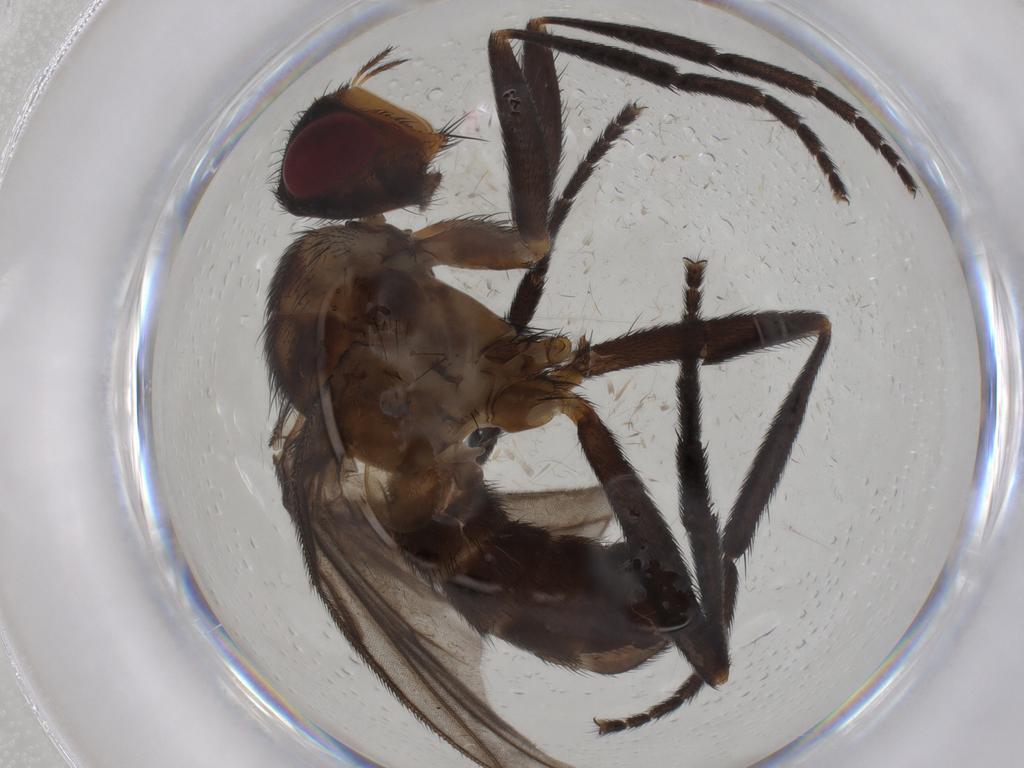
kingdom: Animalia
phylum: Arthropoda
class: Insecta
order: Diptera
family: Calliphoridae
